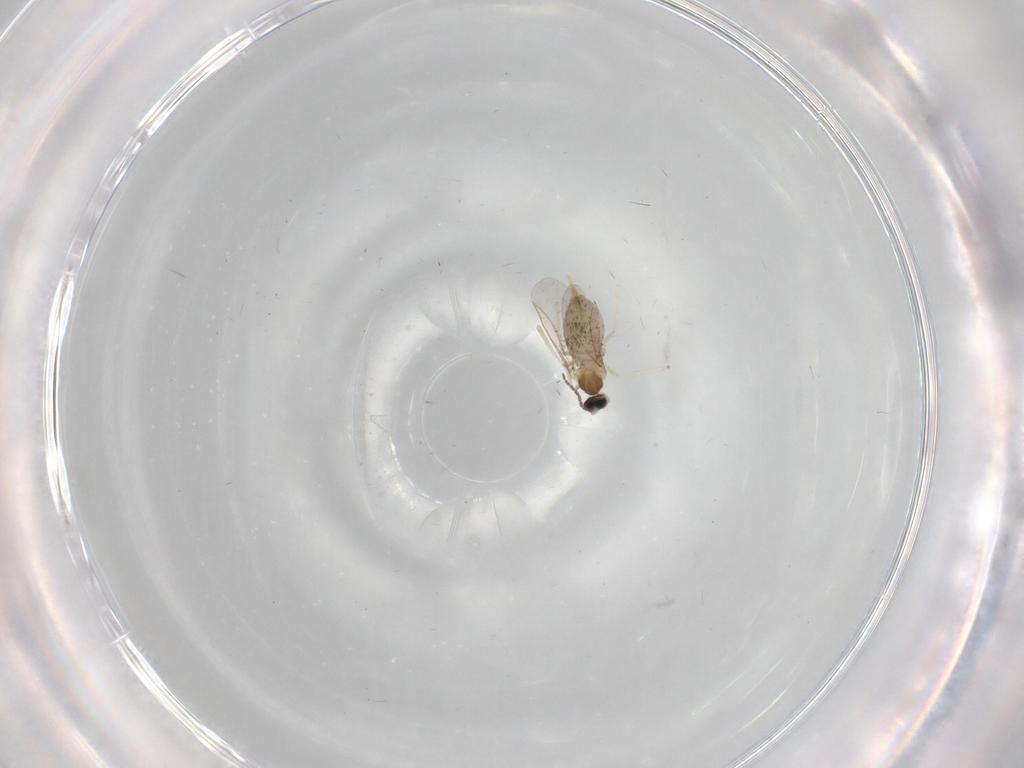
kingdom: Animalia
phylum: Arthropoda
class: Insecta
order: Diptera
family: Cecidomyiidae
